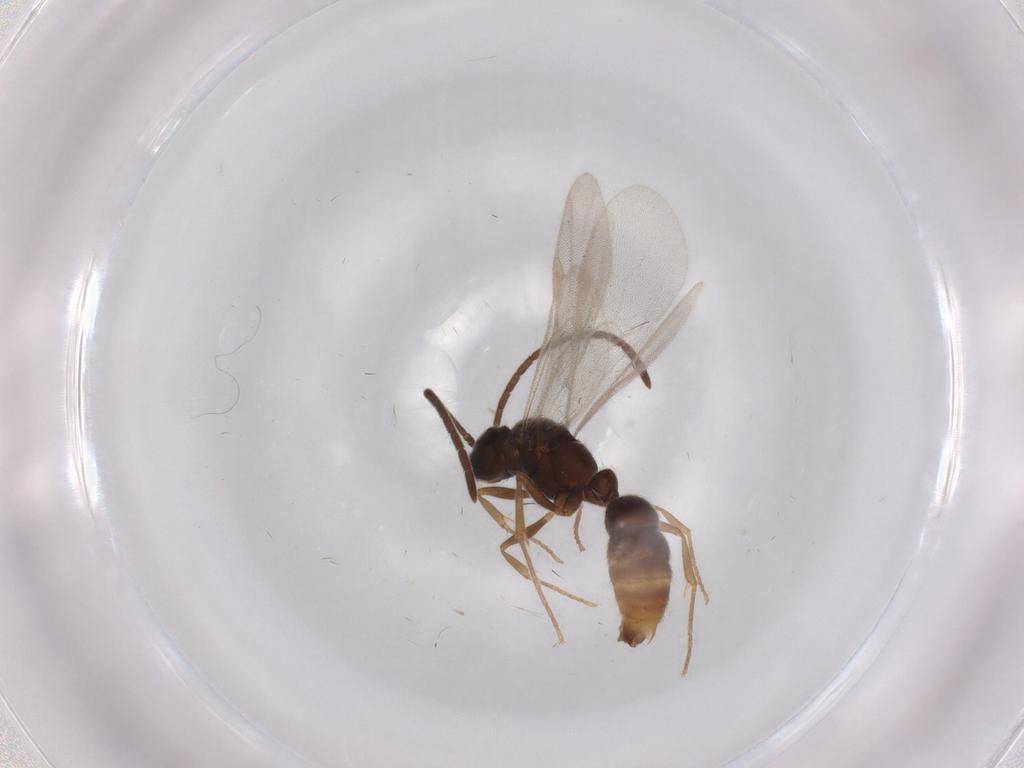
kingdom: Animalia
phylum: Arthropoda
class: Insecta
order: Hymenoptera
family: Formicidae
